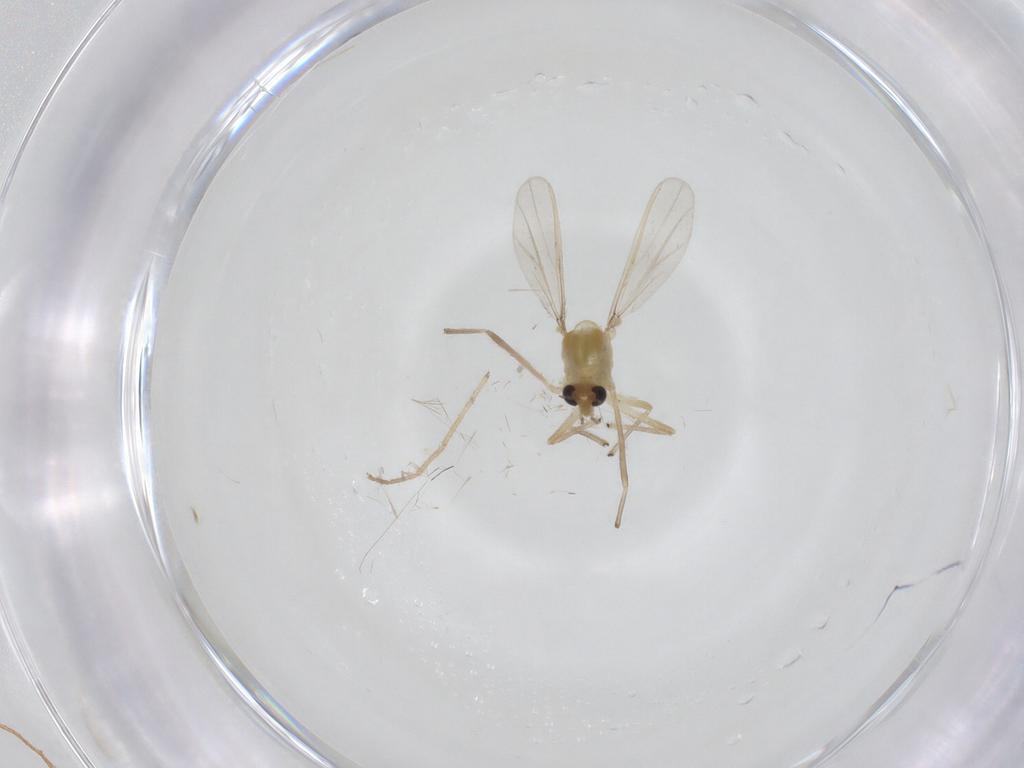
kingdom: Animalia
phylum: Arthropoda
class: Insecta
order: Diptera
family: Chironomidae
